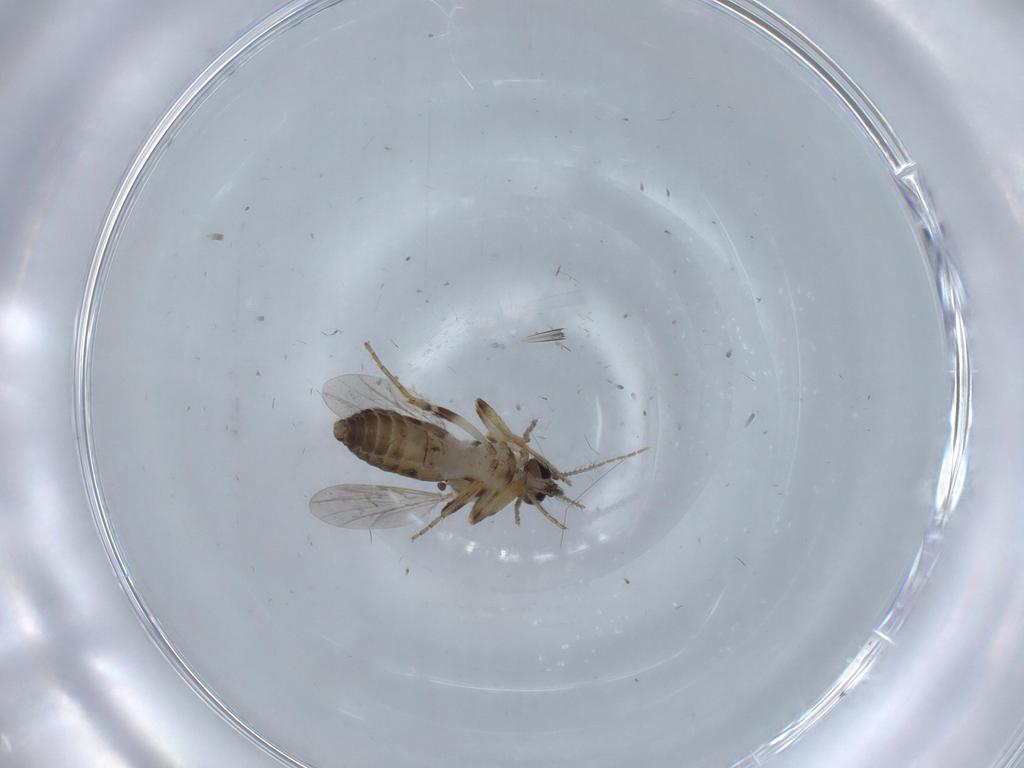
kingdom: Animalia
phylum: Arthropoda
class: Insecta
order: Diptera
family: Ceratopogonidae
